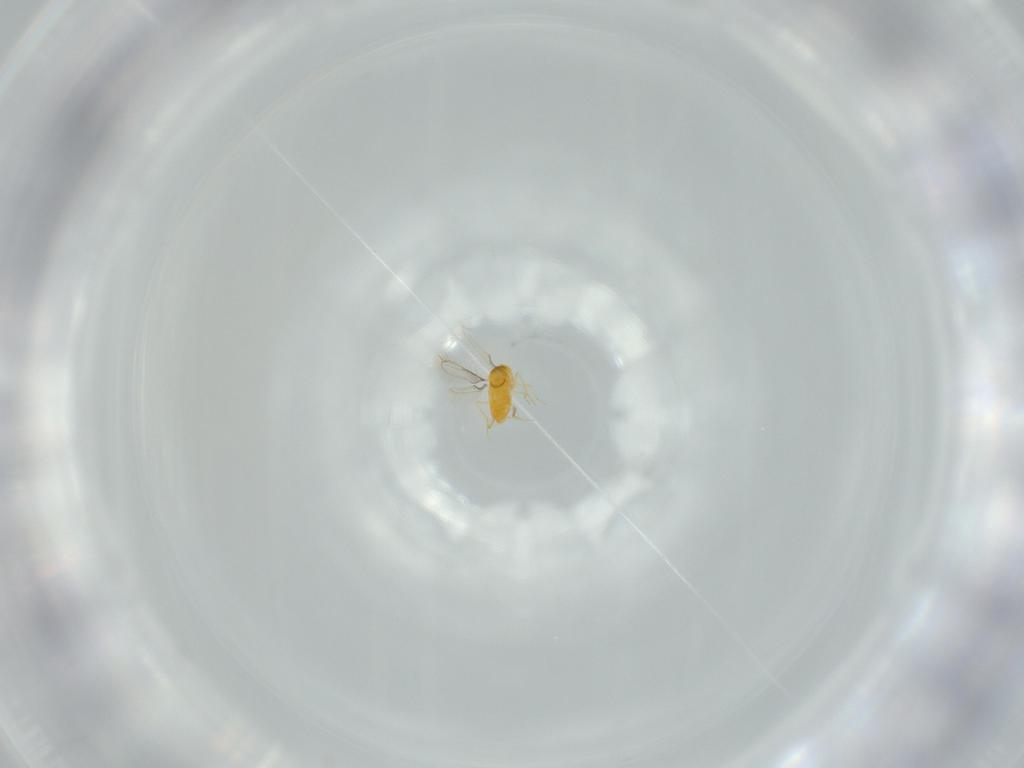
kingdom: Animalia
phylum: Arthropoda
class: Insecta
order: Hymenoptera
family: Aphelinidae
